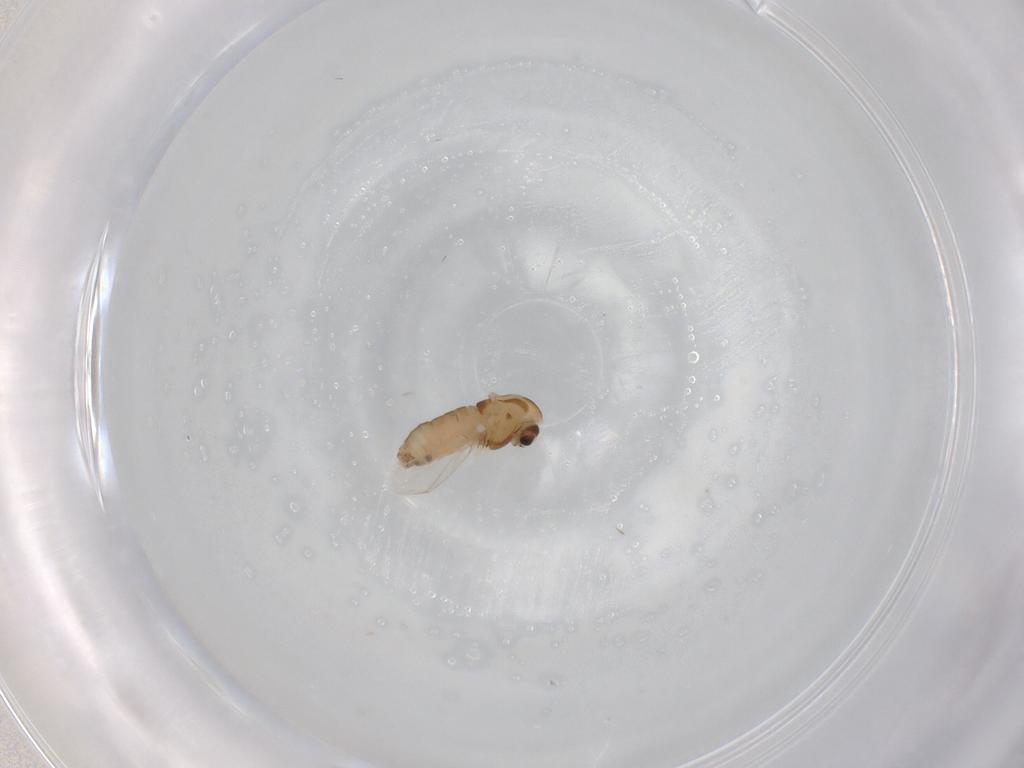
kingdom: Animalia
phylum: Arthropoda
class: Insecta
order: Diptera
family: Chironomidae
